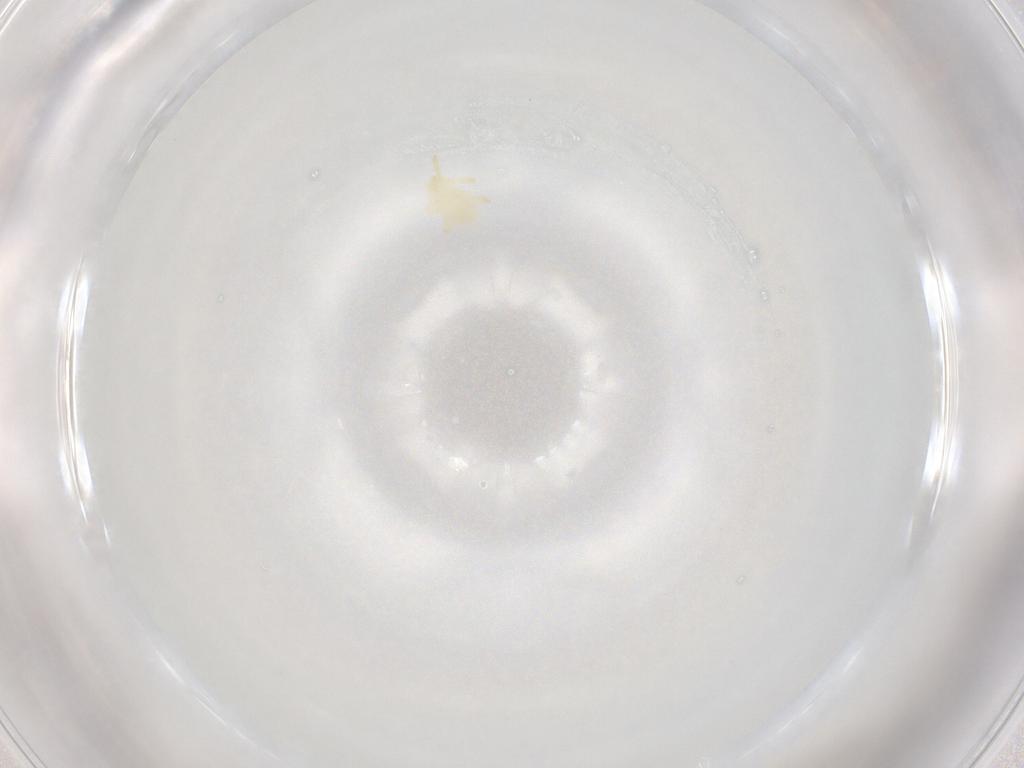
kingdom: Animalia
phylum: Arthropoda
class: Arachnida
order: Trombidiformes
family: Trombidiidae
